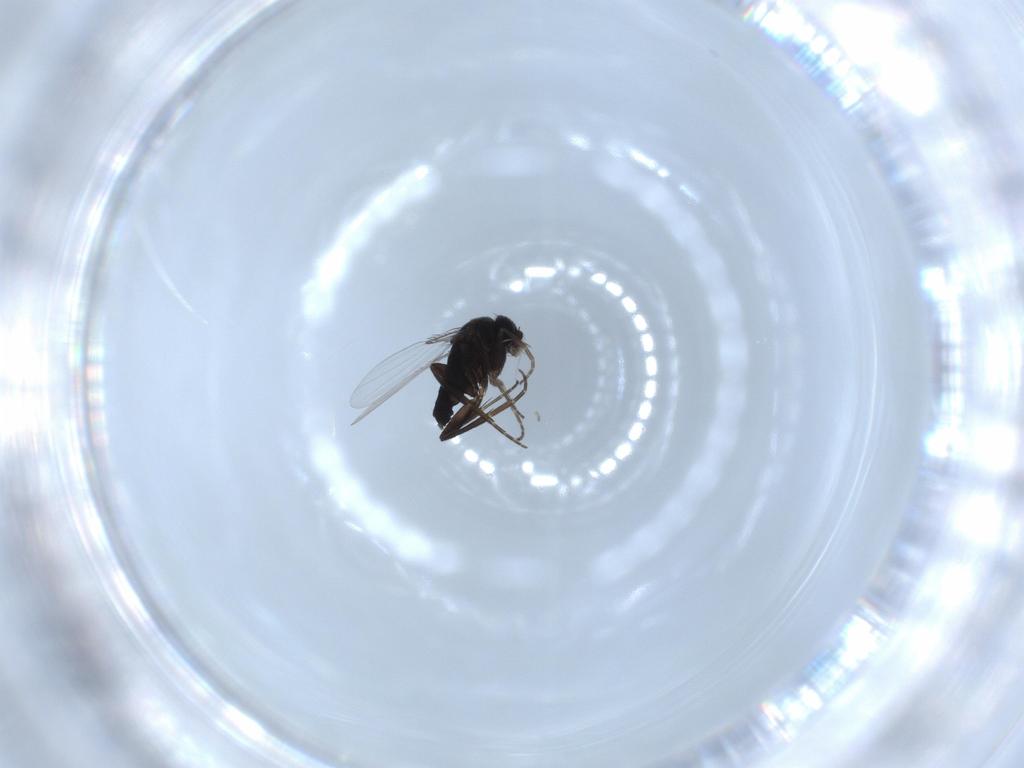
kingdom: Animalia
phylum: Arthropoda
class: Insecta
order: Diptera
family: Phoridae
